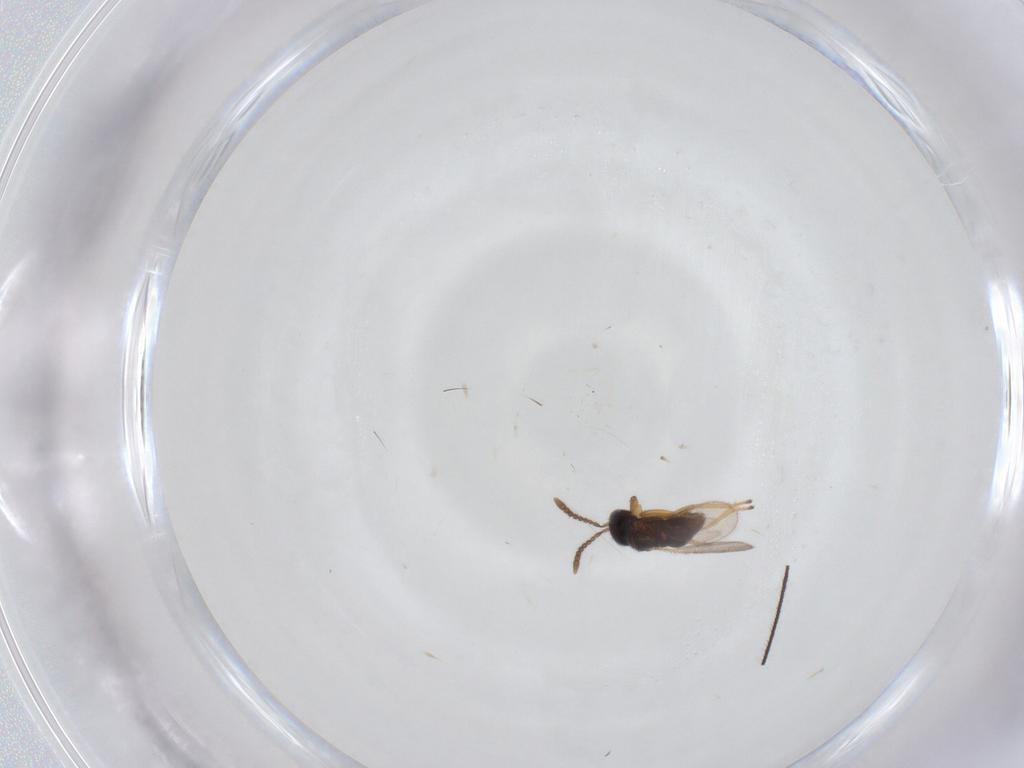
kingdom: Animalia
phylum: Arthropoda
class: Insecta
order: Hymenoptera
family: Encyrtidae
